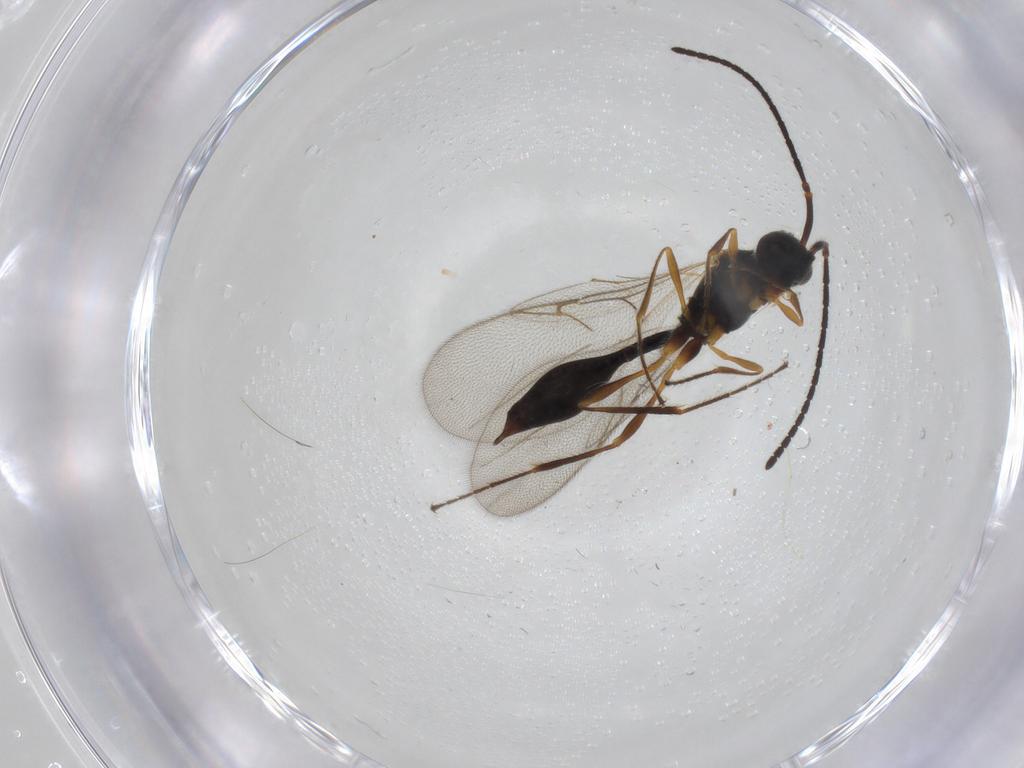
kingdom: Animalia
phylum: Arthropoda
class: Insecta
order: Hymenoptera
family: Diapriidae
